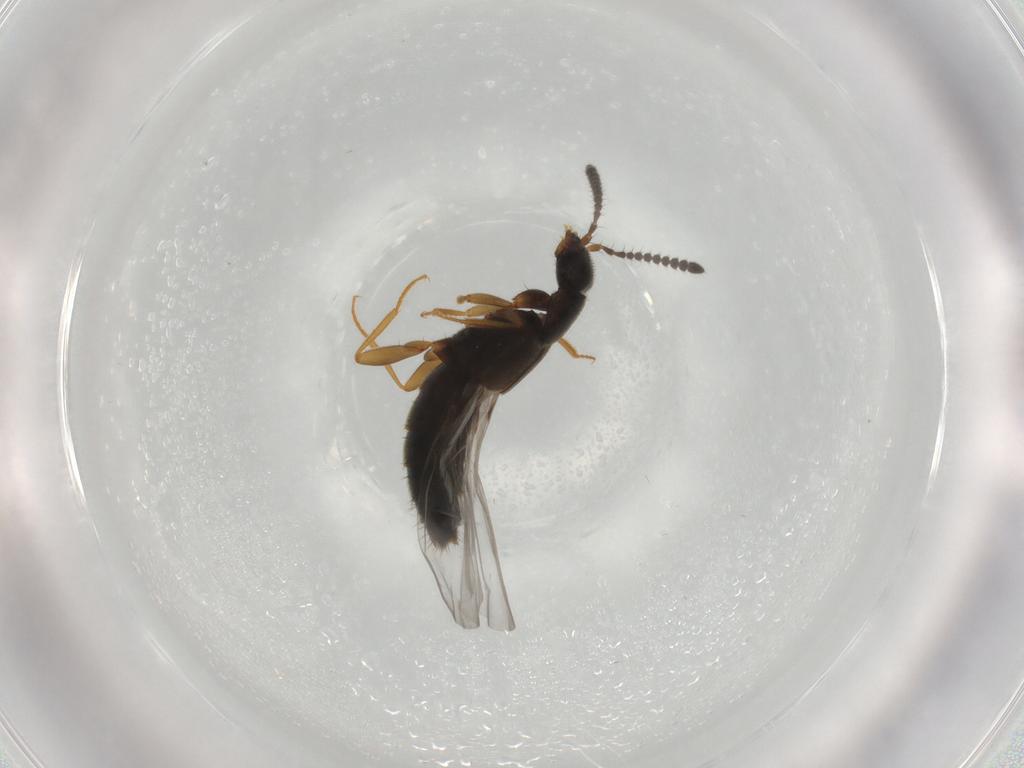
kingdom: Animalia
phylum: Arthropoda
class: Insecta
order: Coleoptera
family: Staphylinidae
